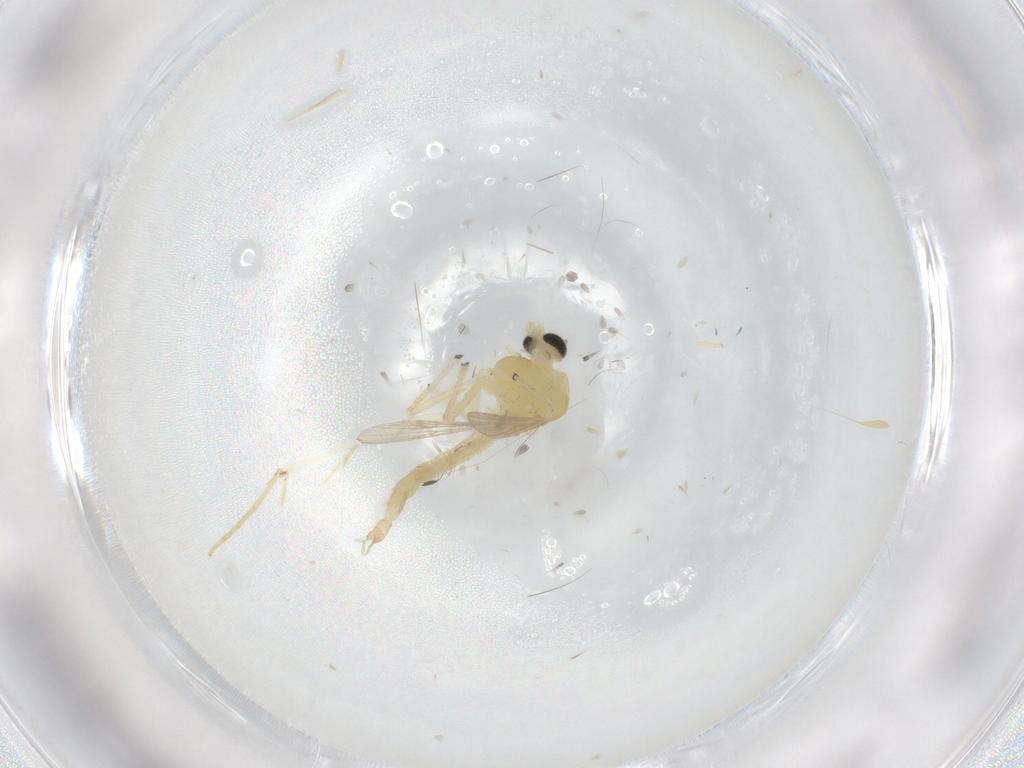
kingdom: Animalia
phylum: Arthropoda
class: Insecta
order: Diptera
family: Chironomidae
